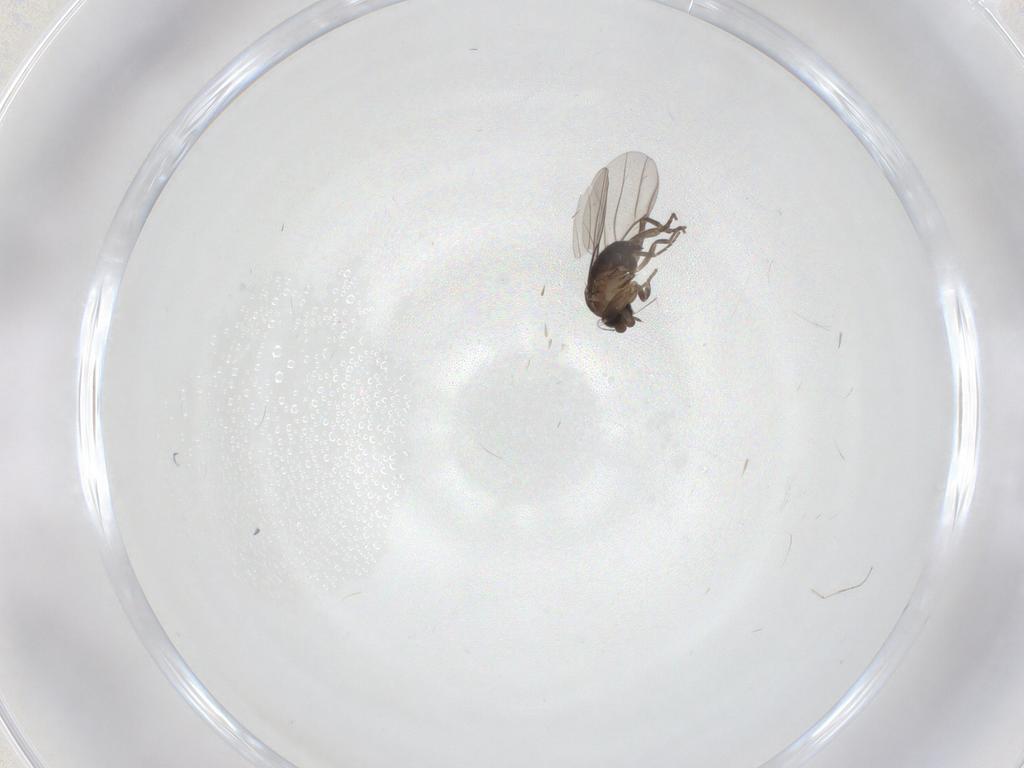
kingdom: Animalia
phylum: Arthropoda
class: Insecta
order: Diptera
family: Cecidomyiidae
